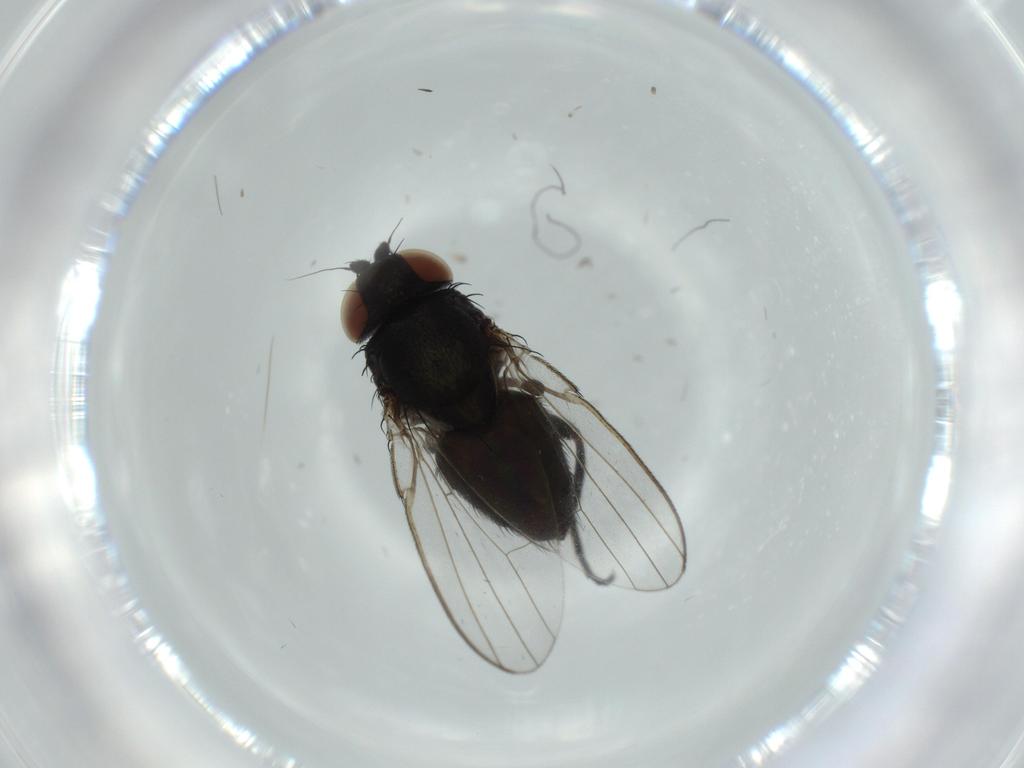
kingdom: Animalia
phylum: Arthropoda
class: Insecta
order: Diptera
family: Milichiidae
